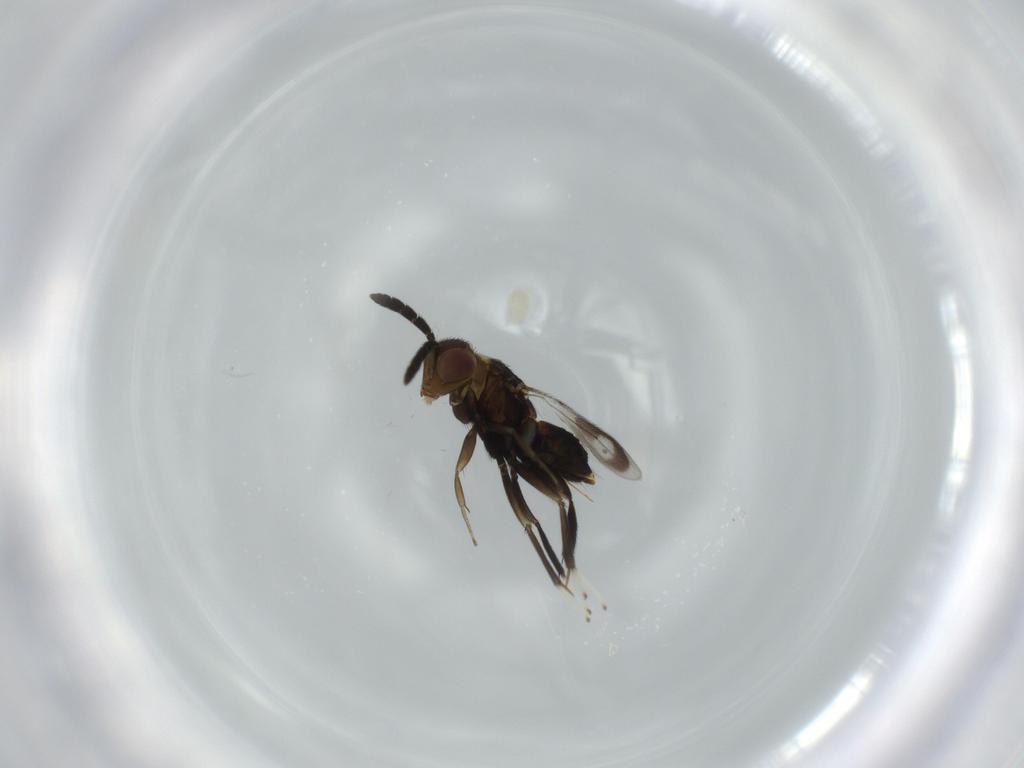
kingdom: Animalia
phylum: Arthropoda
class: Insecta
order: Hymenoptera
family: Aphelinidae
